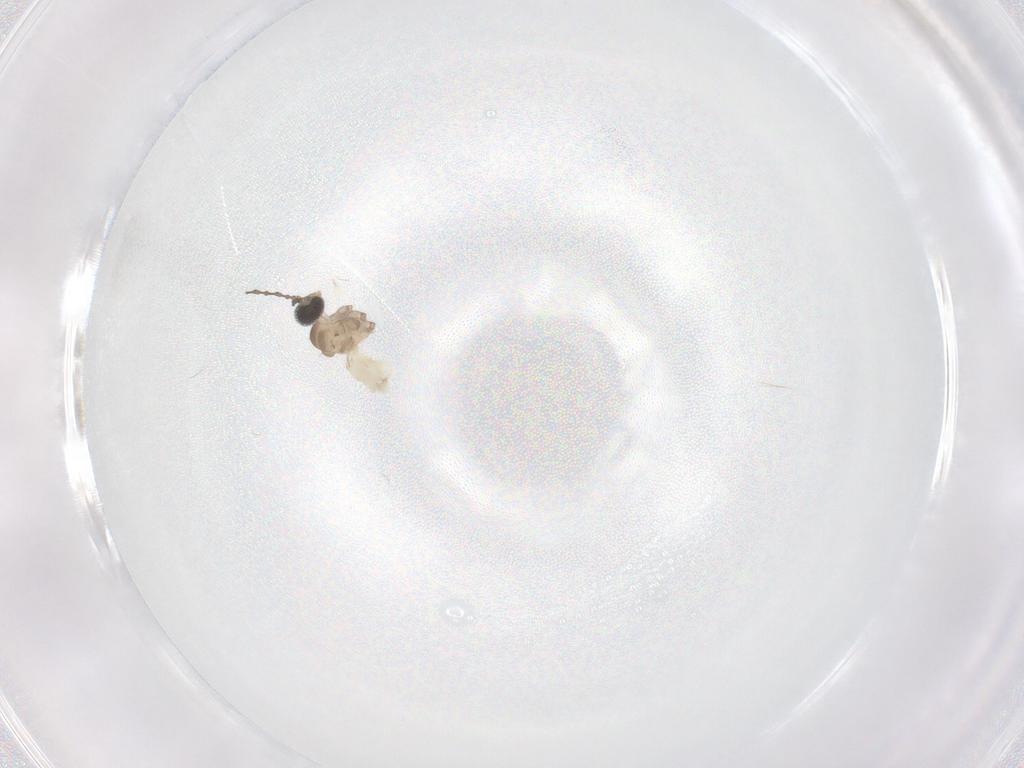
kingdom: Animalia
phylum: Arthropoda
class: Insecta
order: Diptera
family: Cecidomyiidae
